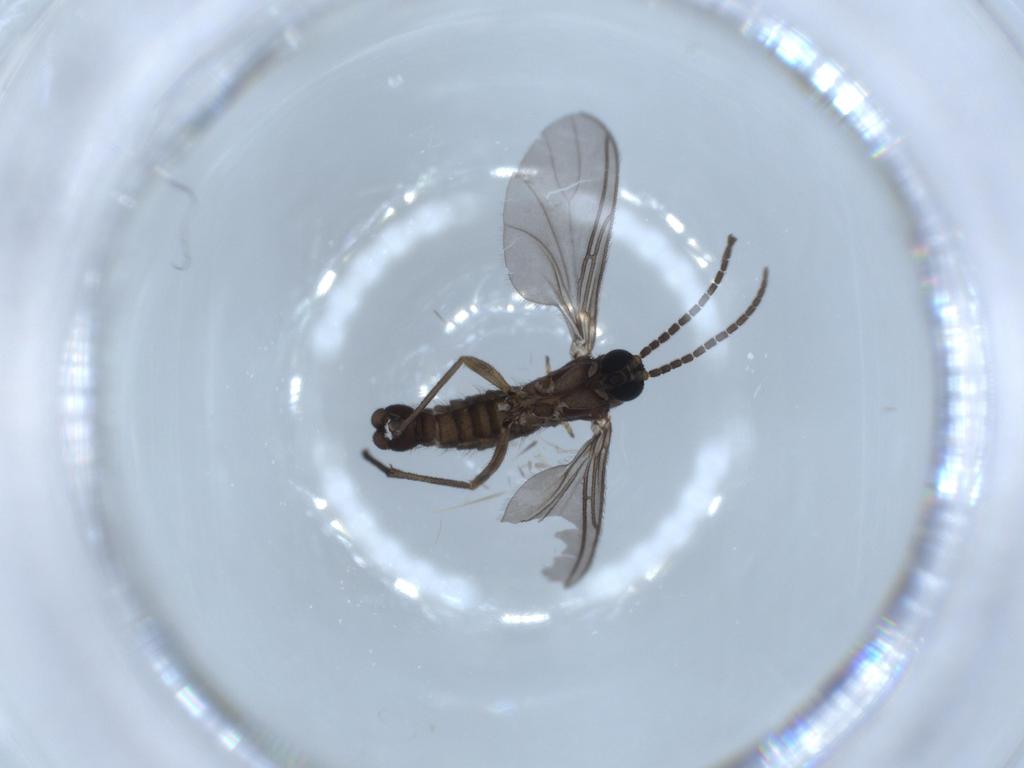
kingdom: Animalia
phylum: Arthropoda
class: Insecta
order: Diptera
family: Sciaridae
